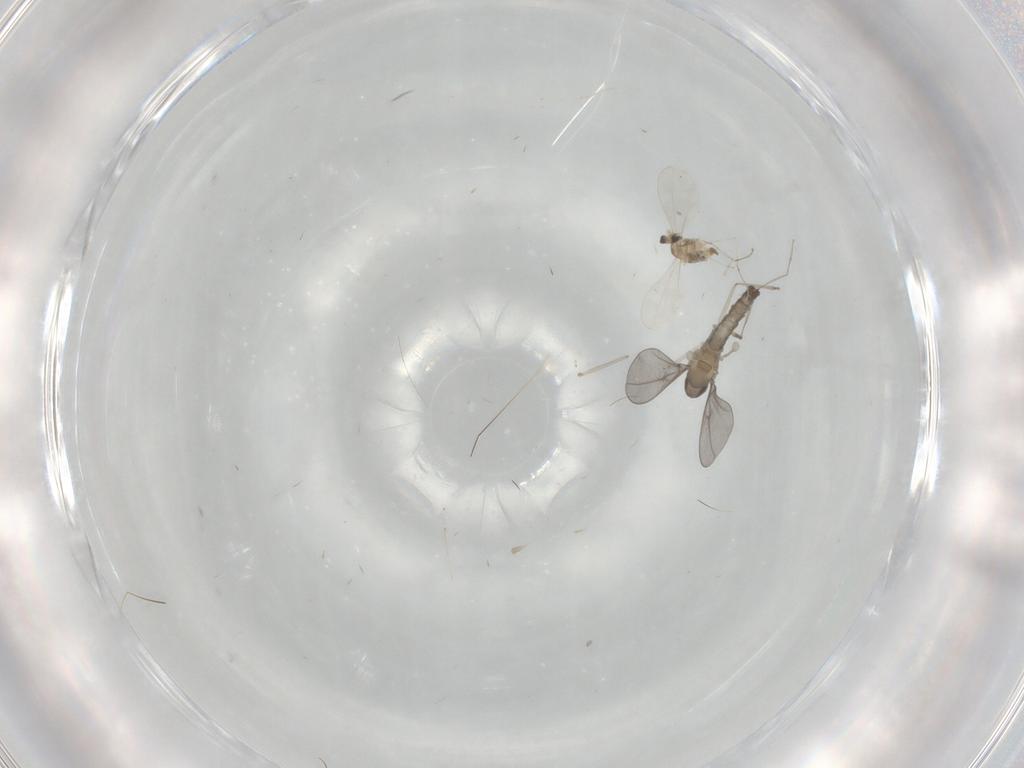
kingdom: Animalia
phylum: Arthropoda
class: Insecta
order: Diptera
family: Cecidomyiidae
